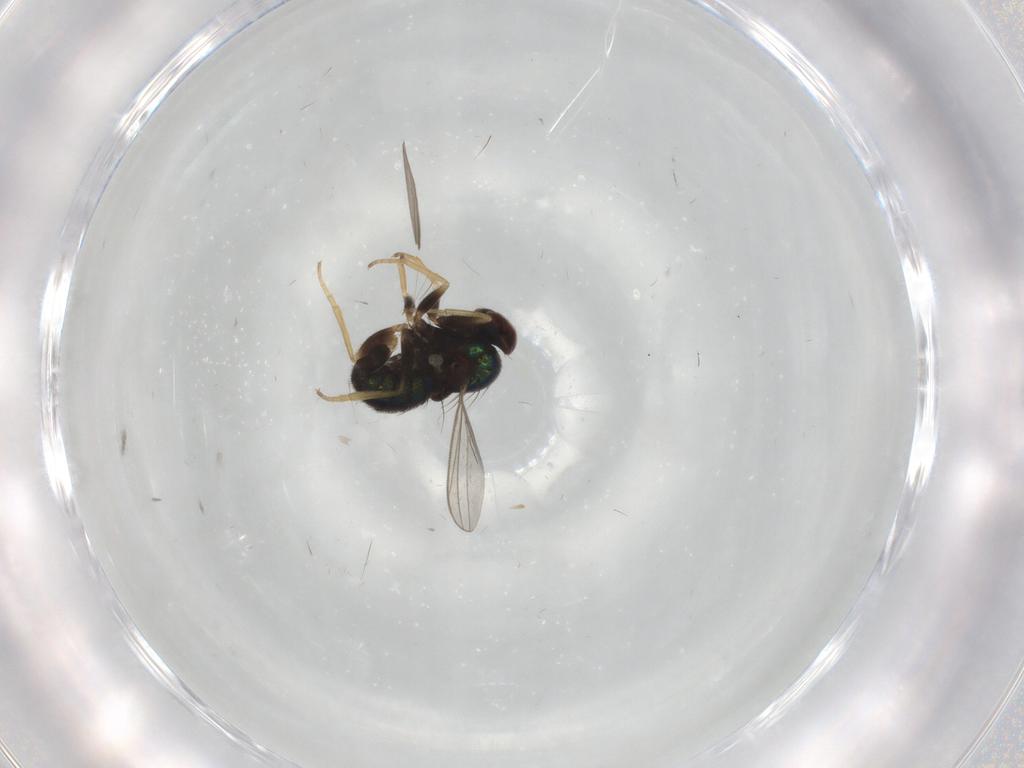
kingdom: Animalia
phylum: Arthropoda
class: Insecta
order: Diptera
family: Dolichopodidae
